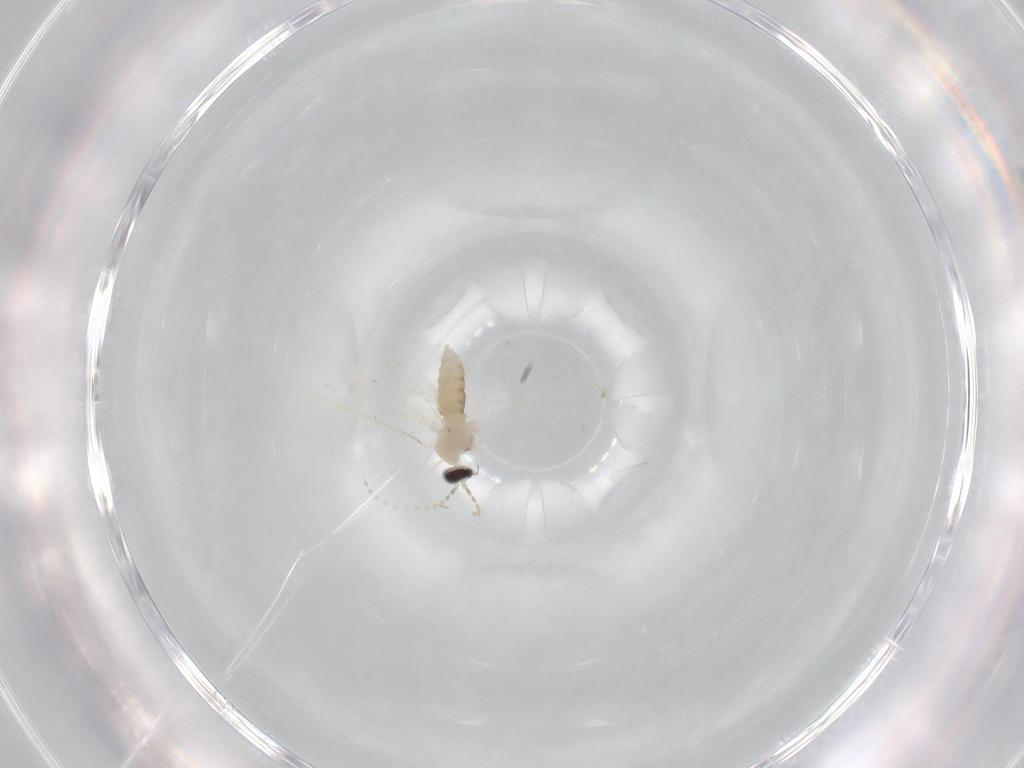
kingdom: Animalia
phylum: Arthropoda
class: Insecta
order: Diptera
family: Cecidomyiidae
